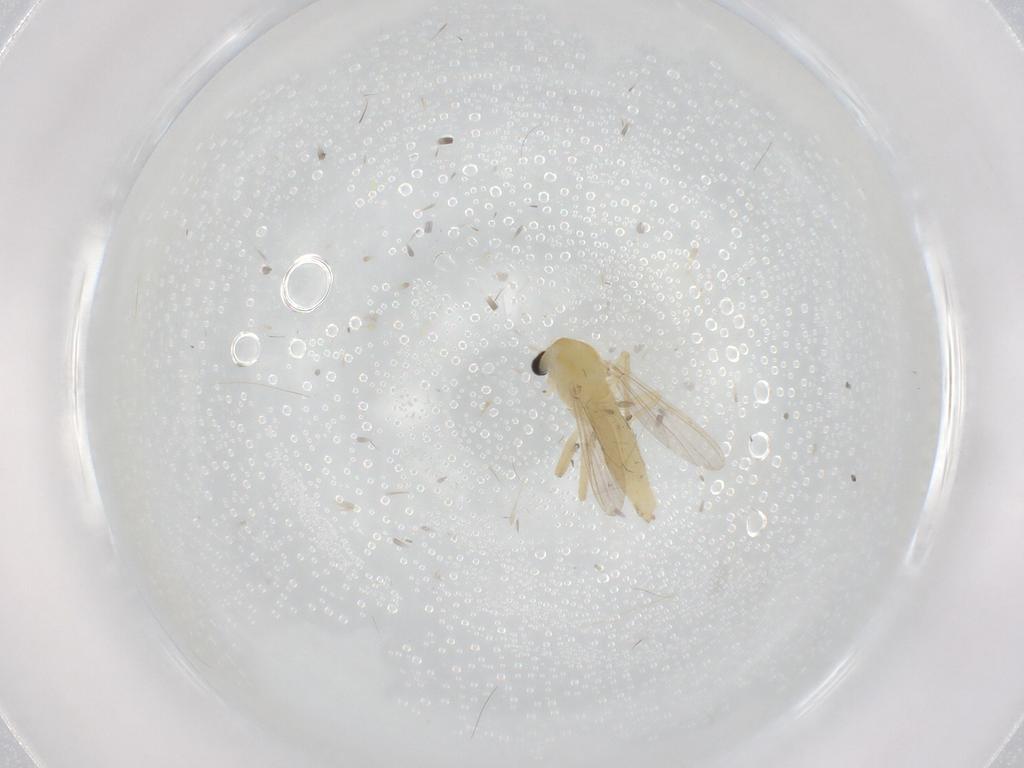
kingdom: Animalia
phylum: Arthropoda
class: Insecta
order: Diptera
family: Chironomidae
